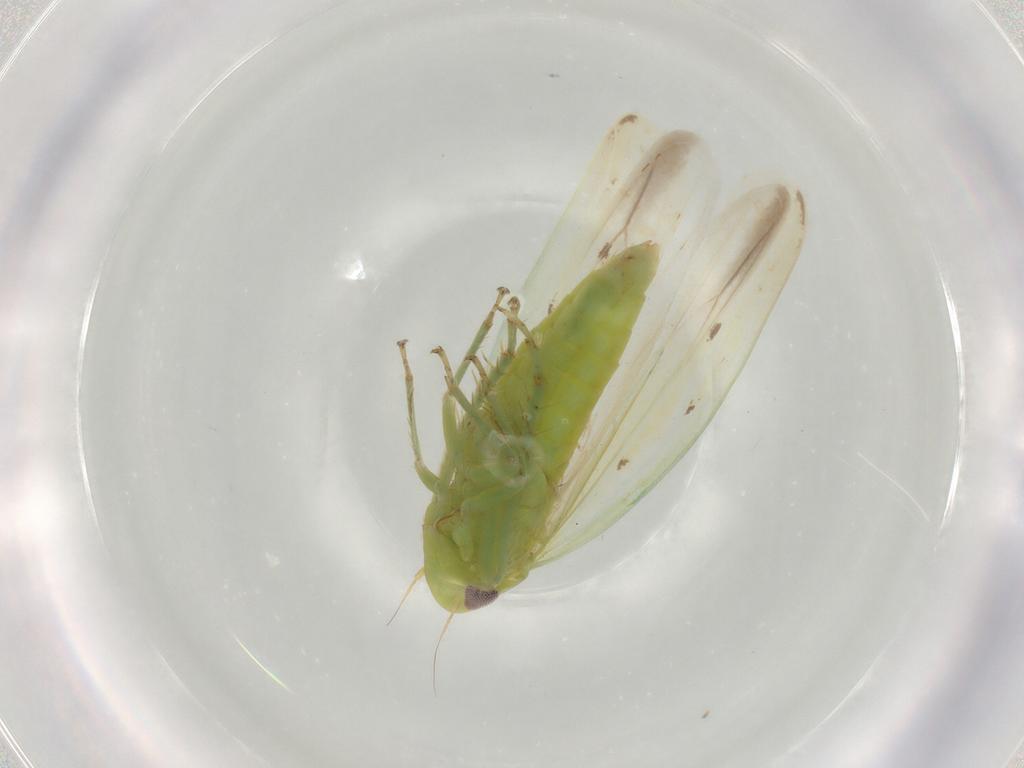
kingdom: Animalia
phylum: Arthropoda
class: Insecta
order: Hemiptera
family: Cicadellidae
